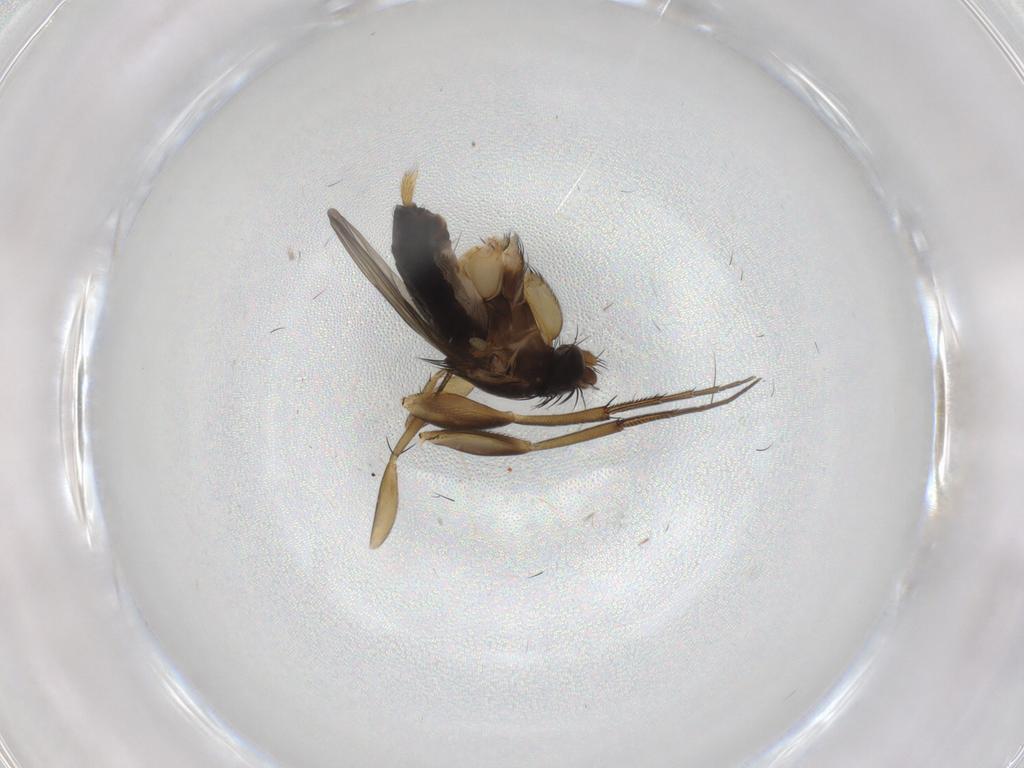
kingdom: Animalia
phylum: Arthropoda
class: Insecta
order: Diptera
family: Phoridae
